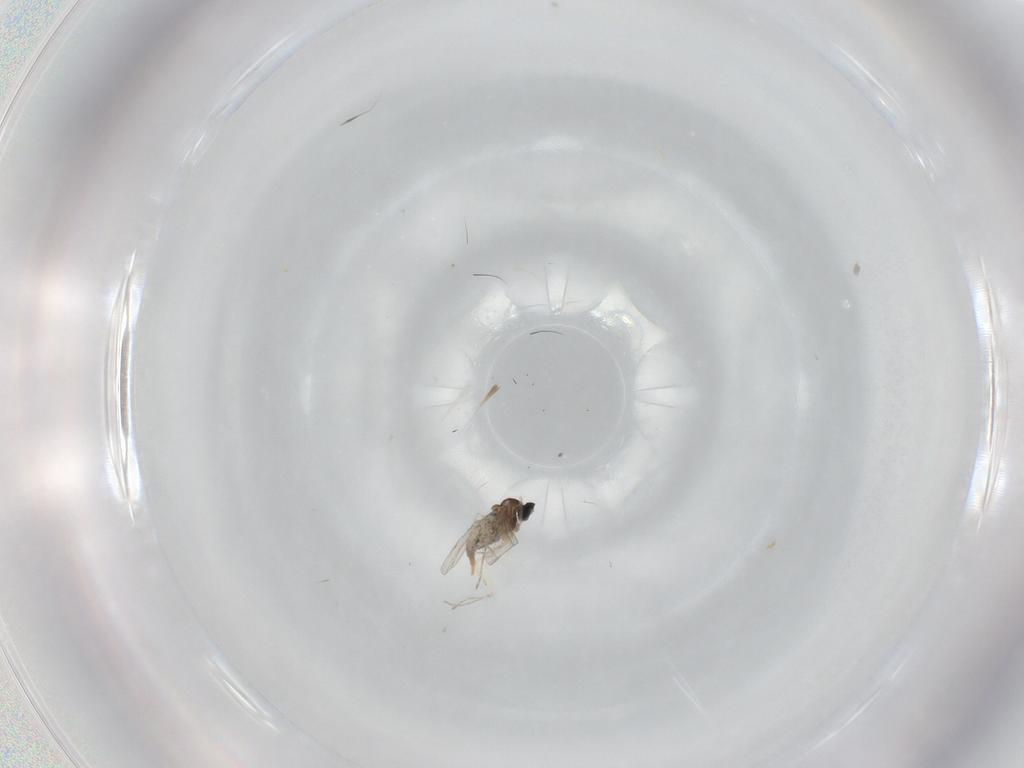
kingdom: Animalia
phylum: Arthropoda
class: Insecta
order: Diptera
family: Cecidomyiidae
